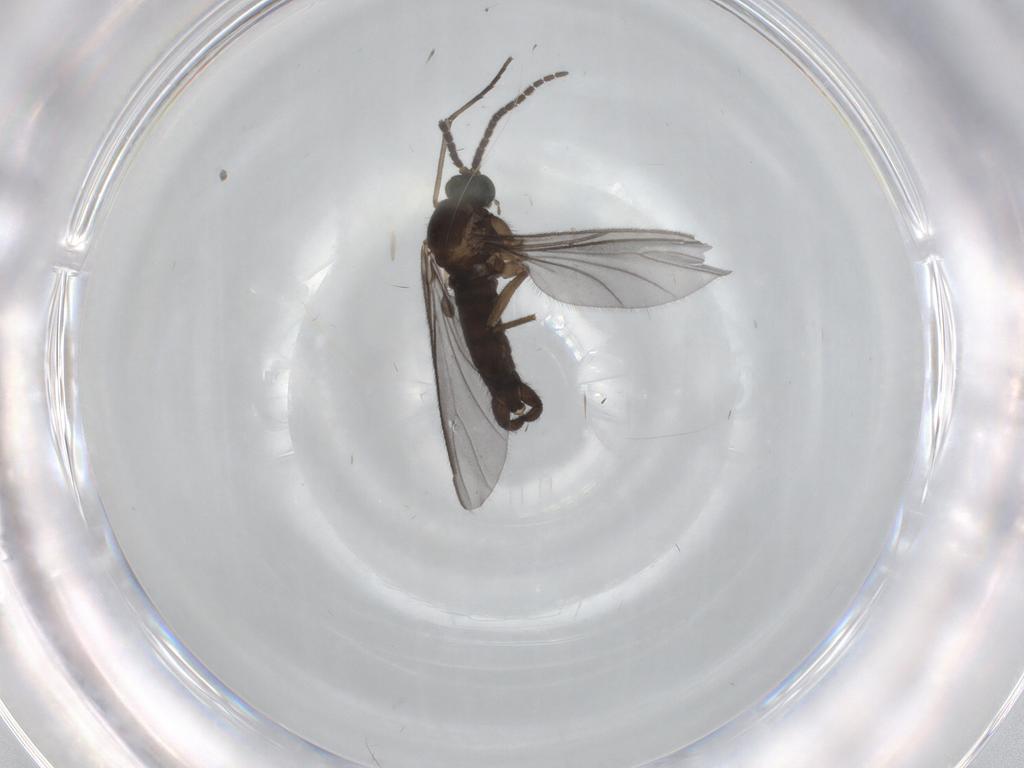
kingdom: Animalia
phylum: Arthropoda
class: Insecta
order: Diptera
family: Sciaridae
